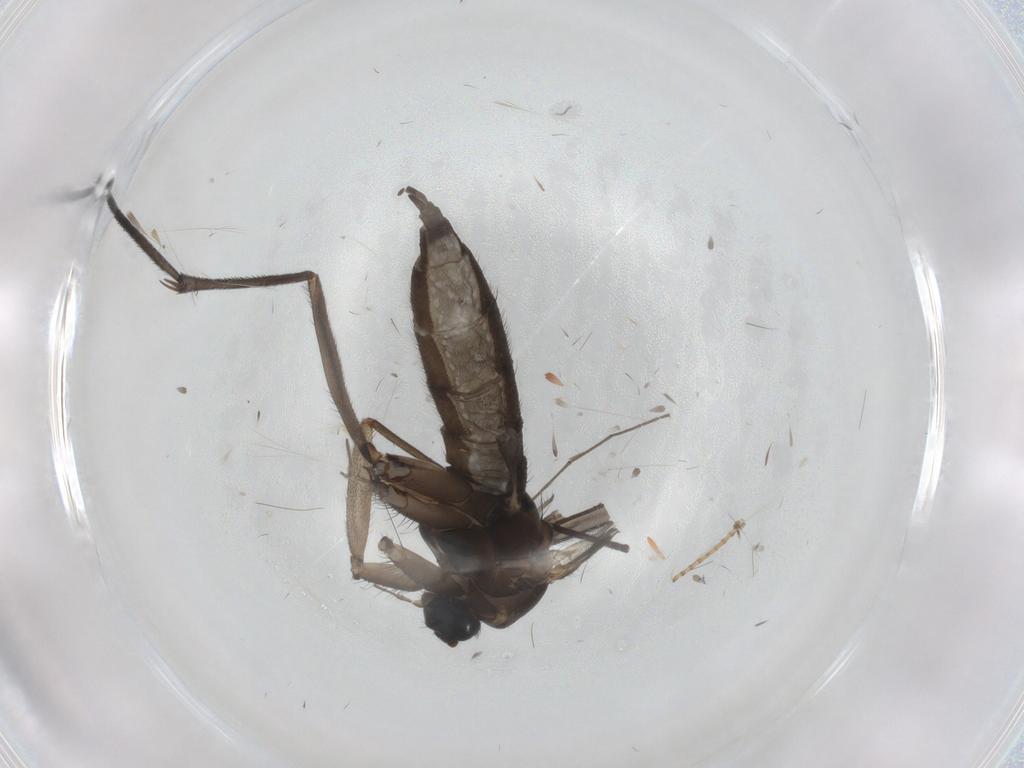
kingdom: Animalia
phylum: Arthropoda
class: Insecta
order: Diptera
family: Sciaridae
